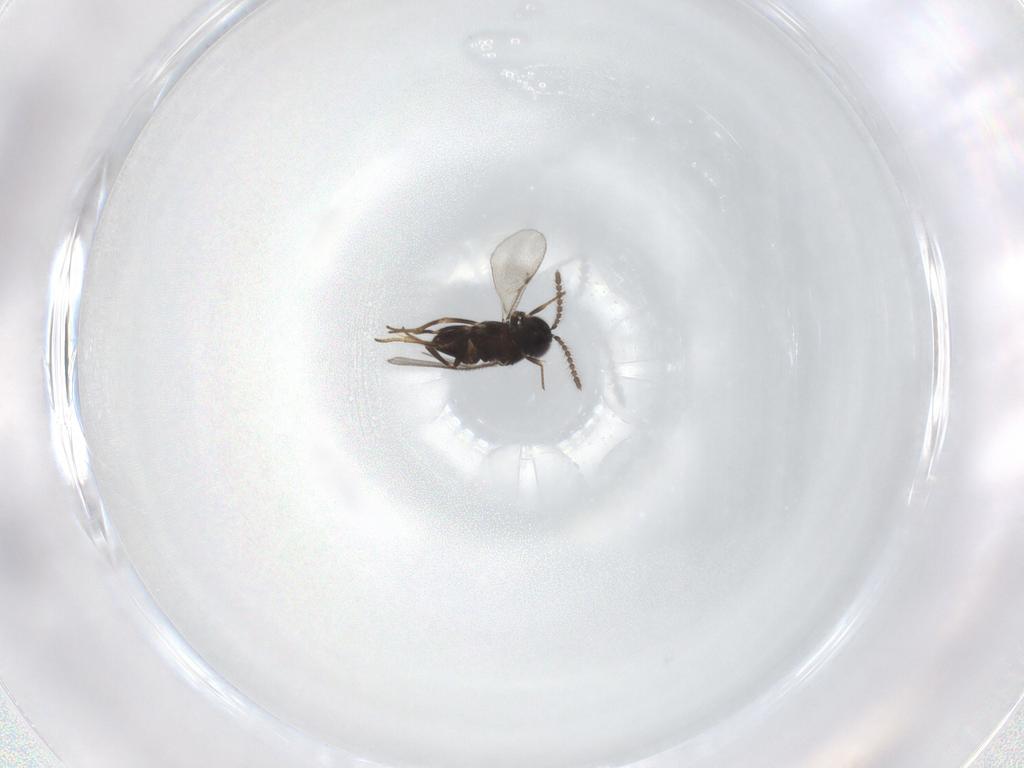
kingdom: Animalia
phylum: Arthropoda
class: Insecta
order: Hymenoptera
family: Encyrtidae
